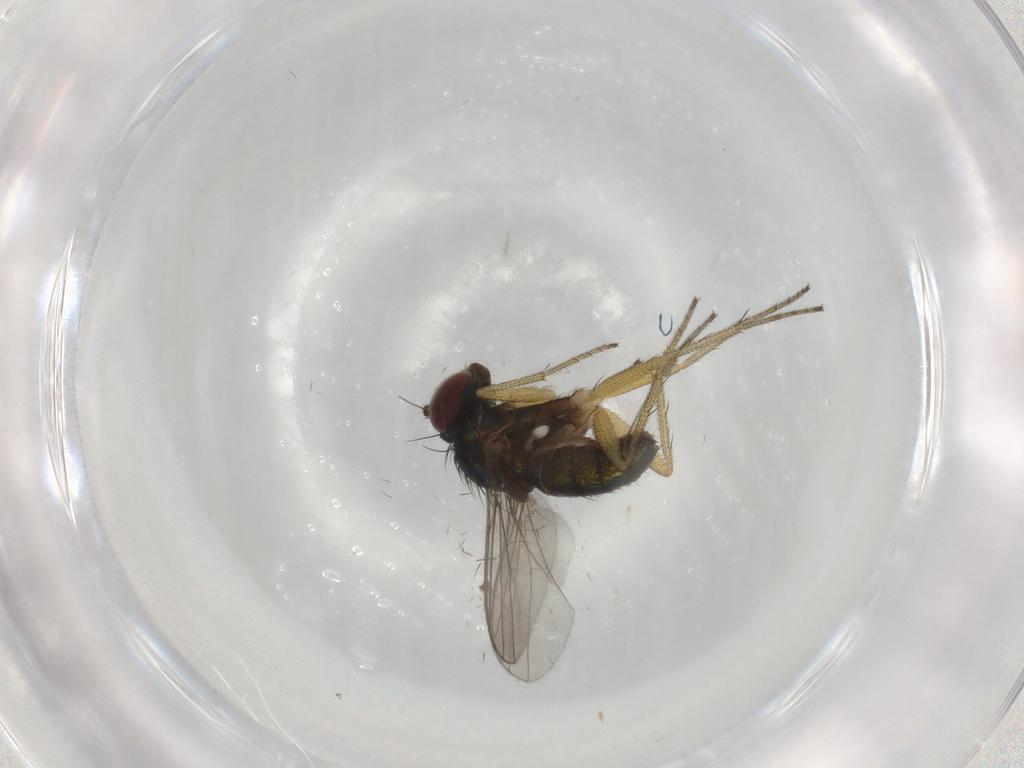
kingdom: Animalia
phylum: Arthropoda
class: Insecta
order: Diptera
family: Dolichopodidae
